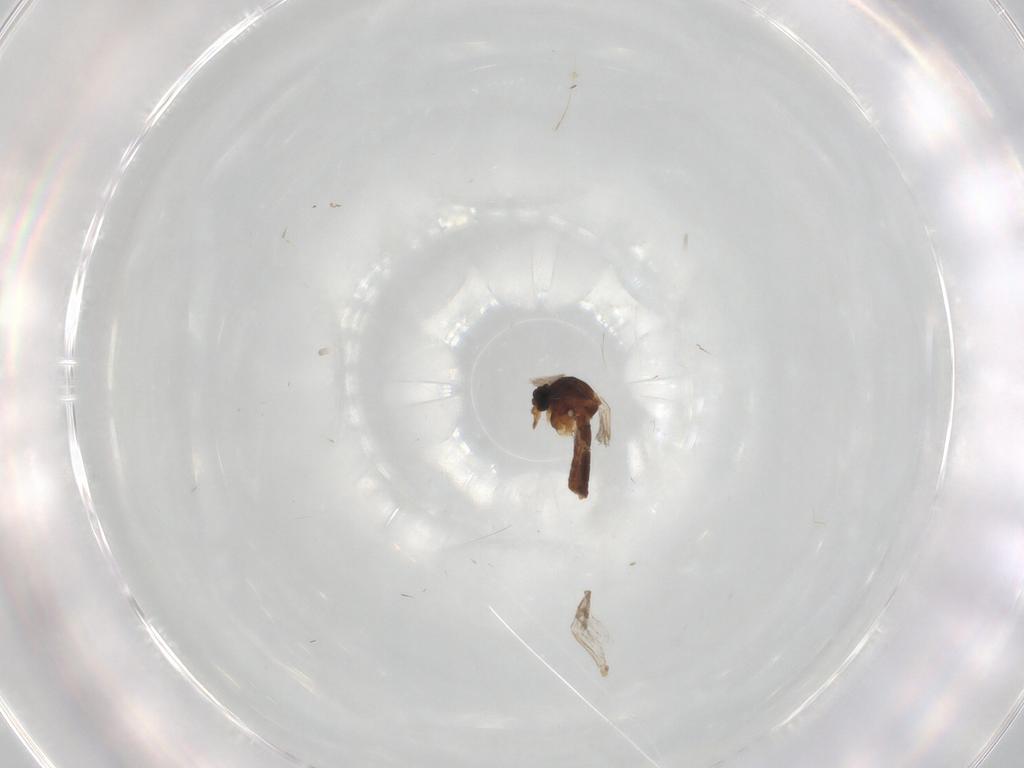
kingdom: Animalia
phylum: Arthropoda
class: Insecta
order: Diptera
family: Ceratopogonidae
